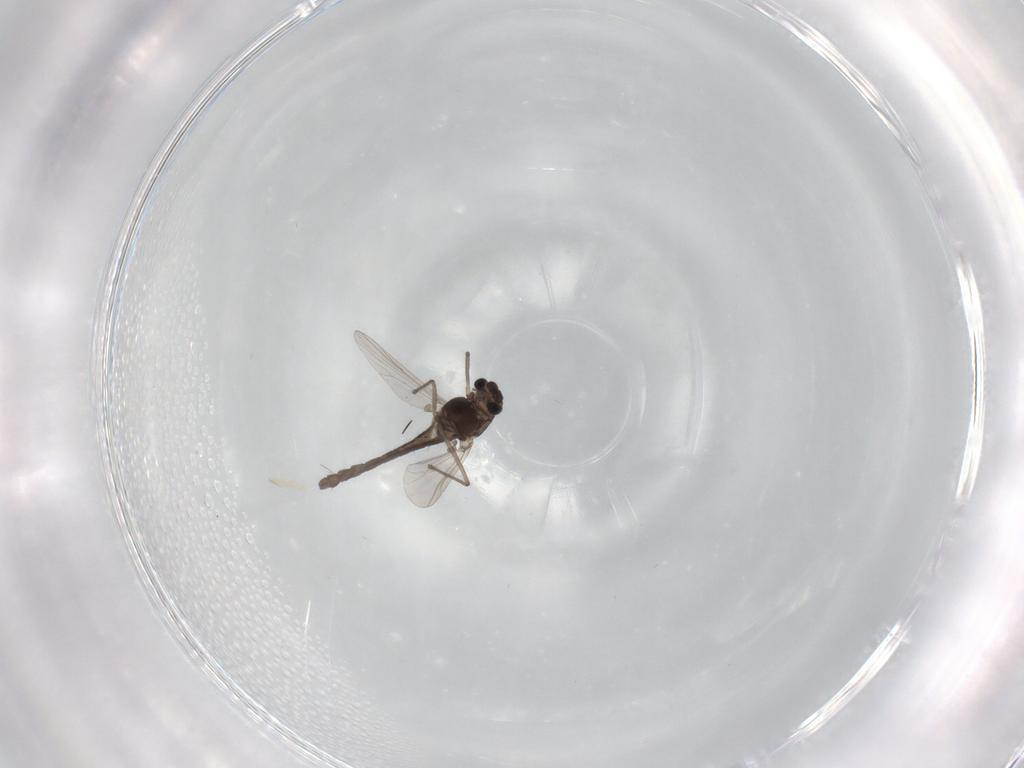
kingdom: Animalia
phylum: Arthropoda
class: Insecta
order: Diptera
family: Chironomidae
